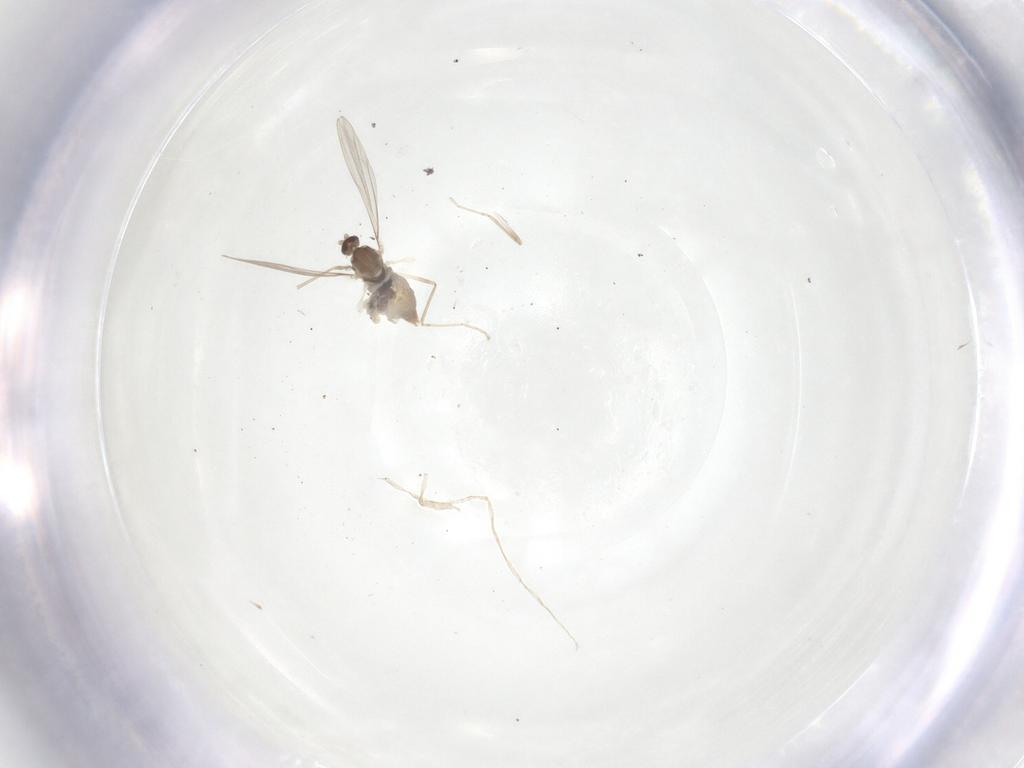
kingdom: Animalia
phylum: Arthropoda
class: Insecta
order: Diptera
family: Cecidomyiidae
